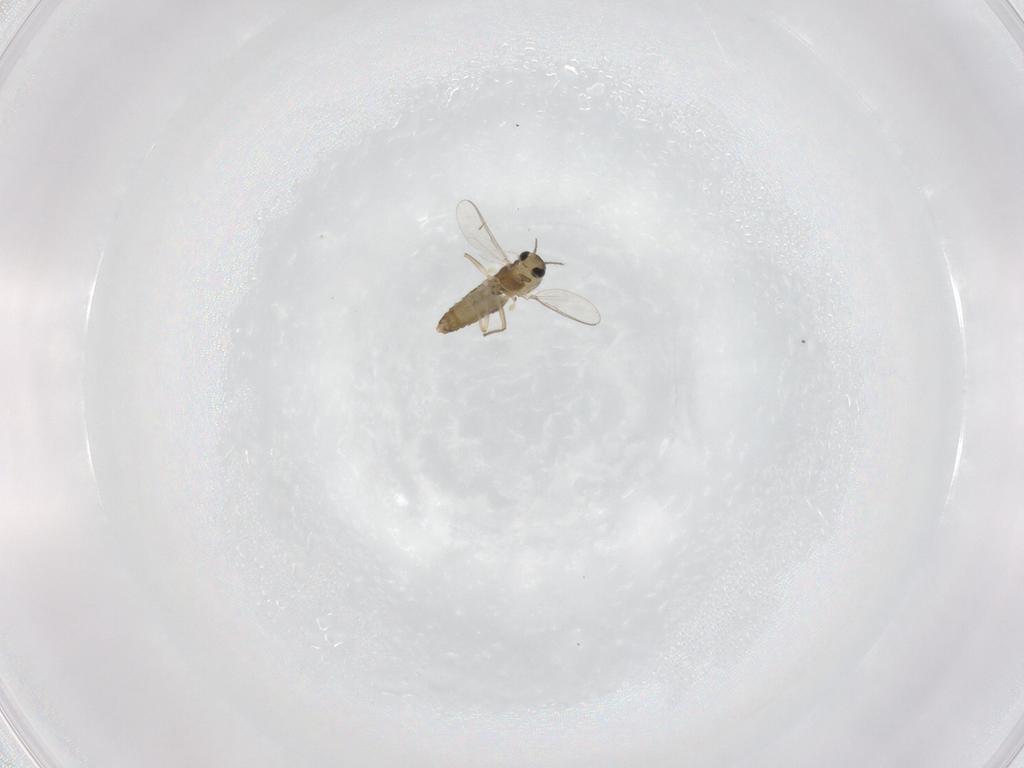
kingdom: Animalia
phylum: Arthropoda
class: Insecta
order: Diptera
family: Chironomidae
